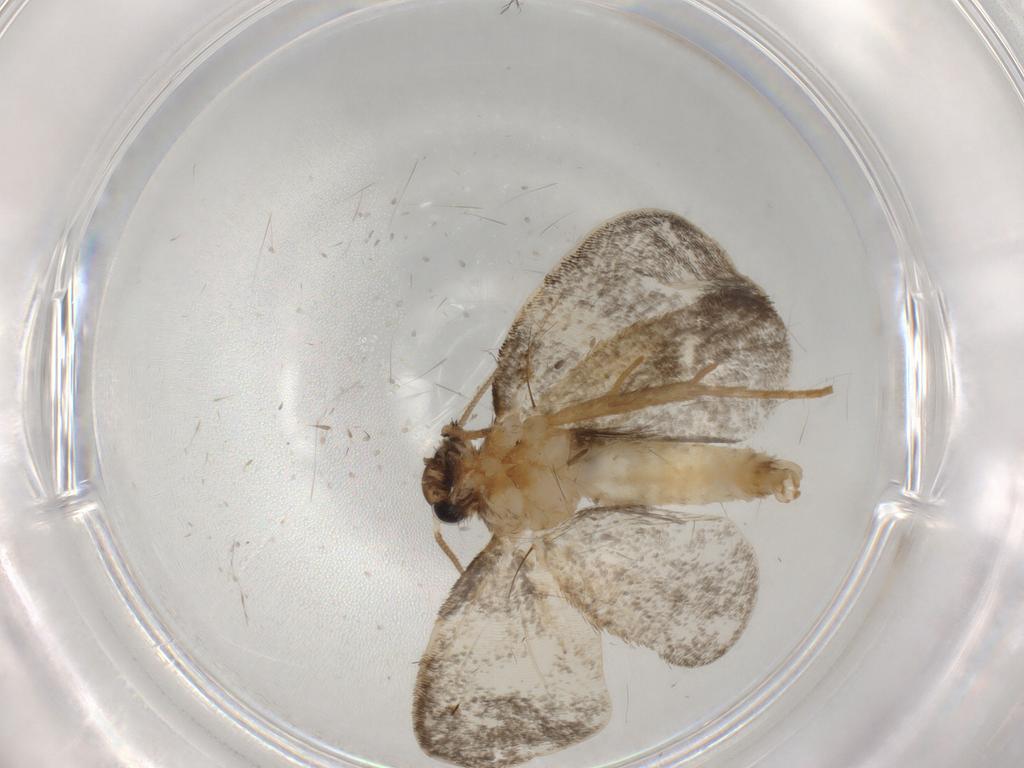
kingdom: Animalia
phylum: Arthropoda
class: Insecta
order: Lepidoptera
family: Psychidae
